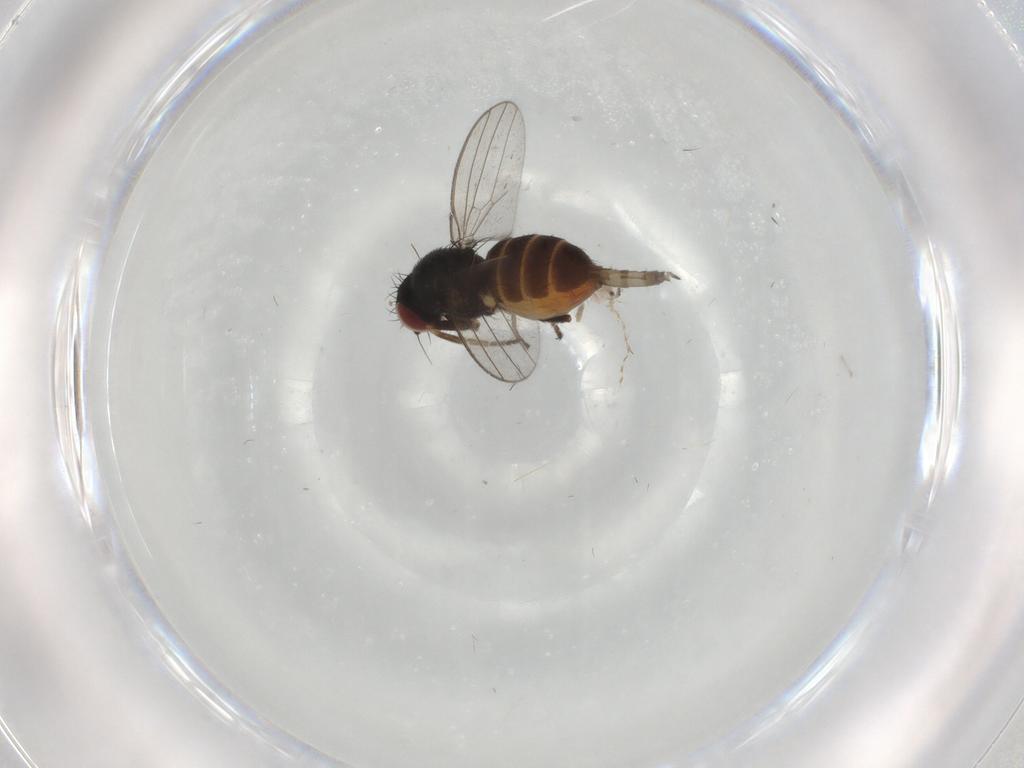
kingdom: Animalia
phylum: Arthropoda
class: Insecta
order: Diptera
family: Milichiidae
